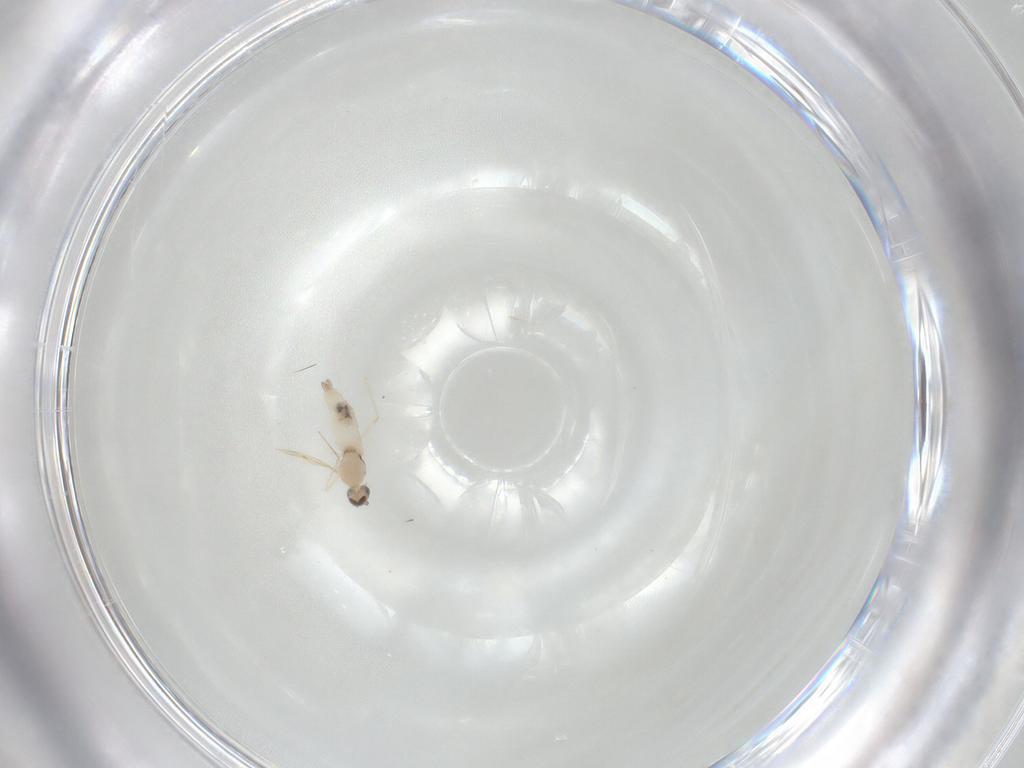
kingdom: Animalia
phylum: Arthropoda
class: Insecta
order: Diptera
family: Cecidomyiidae
